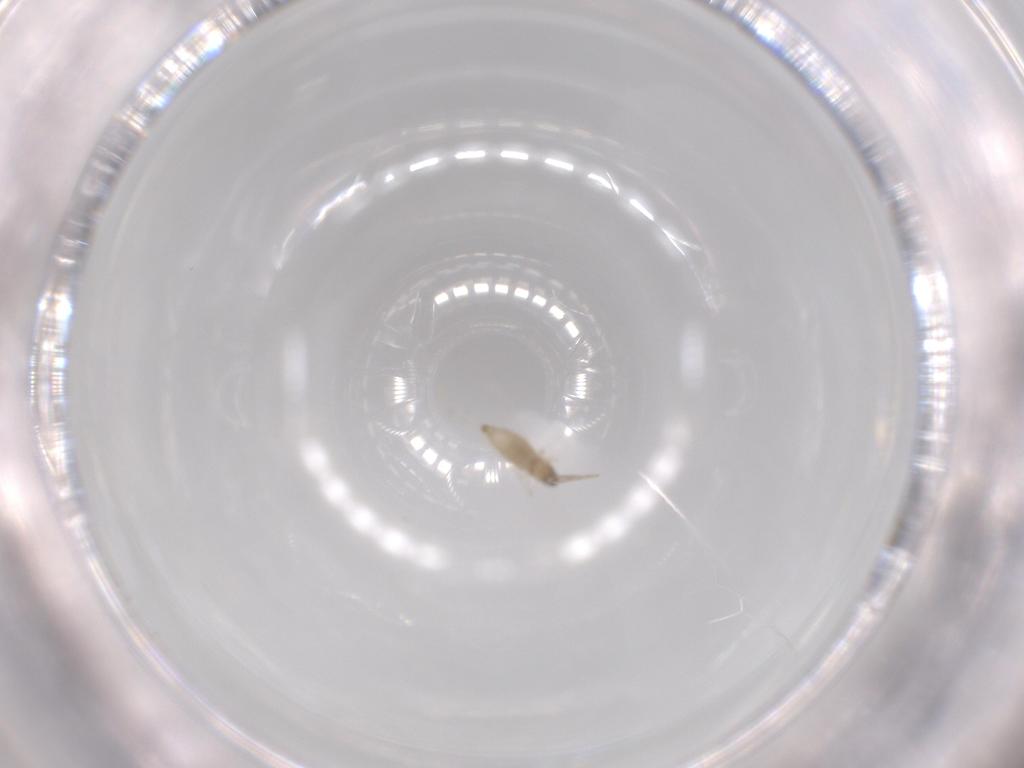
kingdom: Animalia
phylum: Arthropoda
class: Insecta
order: Diptera
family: Cecidomyiidae
